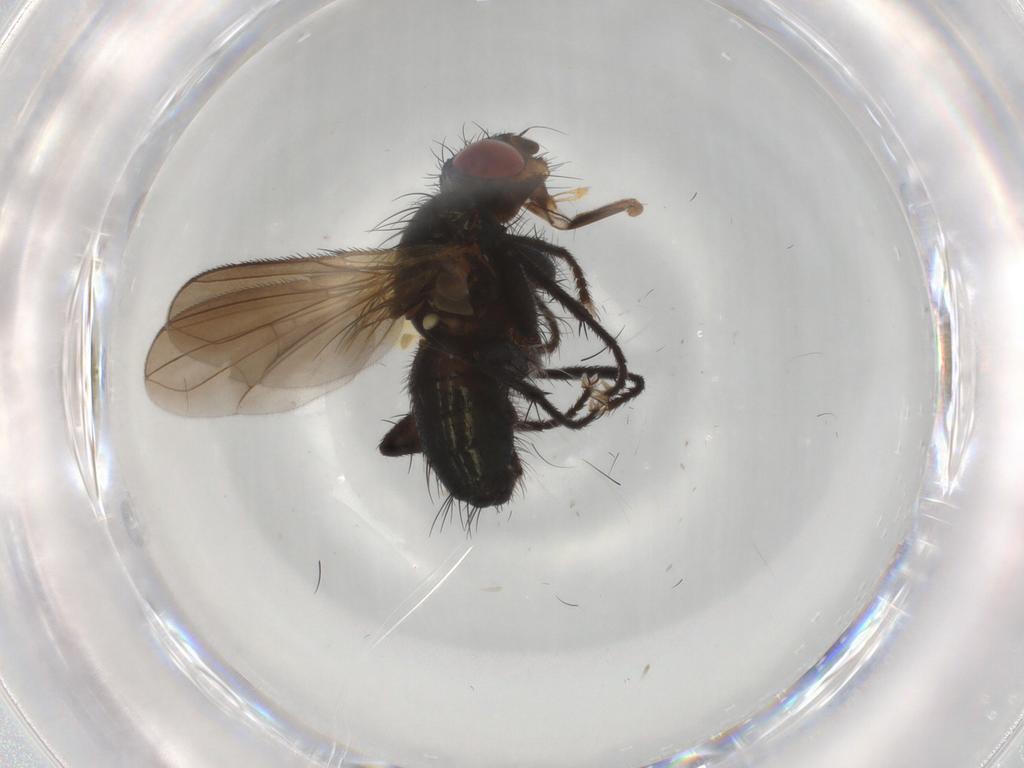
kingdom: Animalia
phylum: Arthropoda
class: Insecta
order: Diptera
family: Calliphoridae
